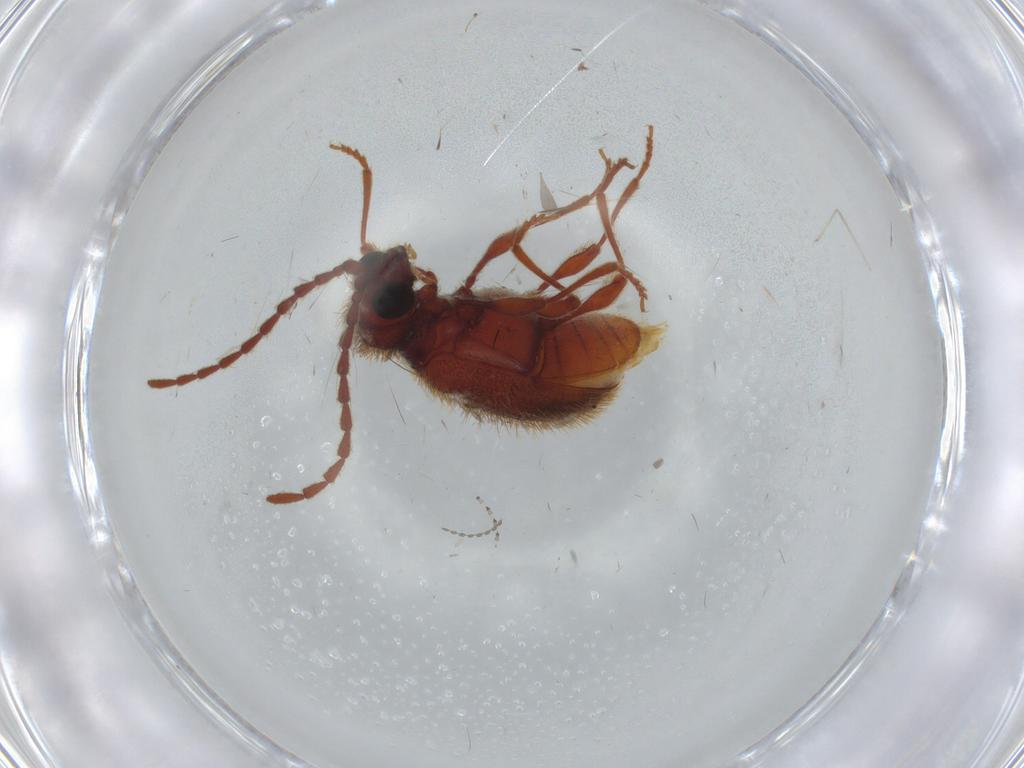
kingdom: Animalia
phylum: Arthropoda
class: Insecta
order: Coleoptera
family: Ptinidae
